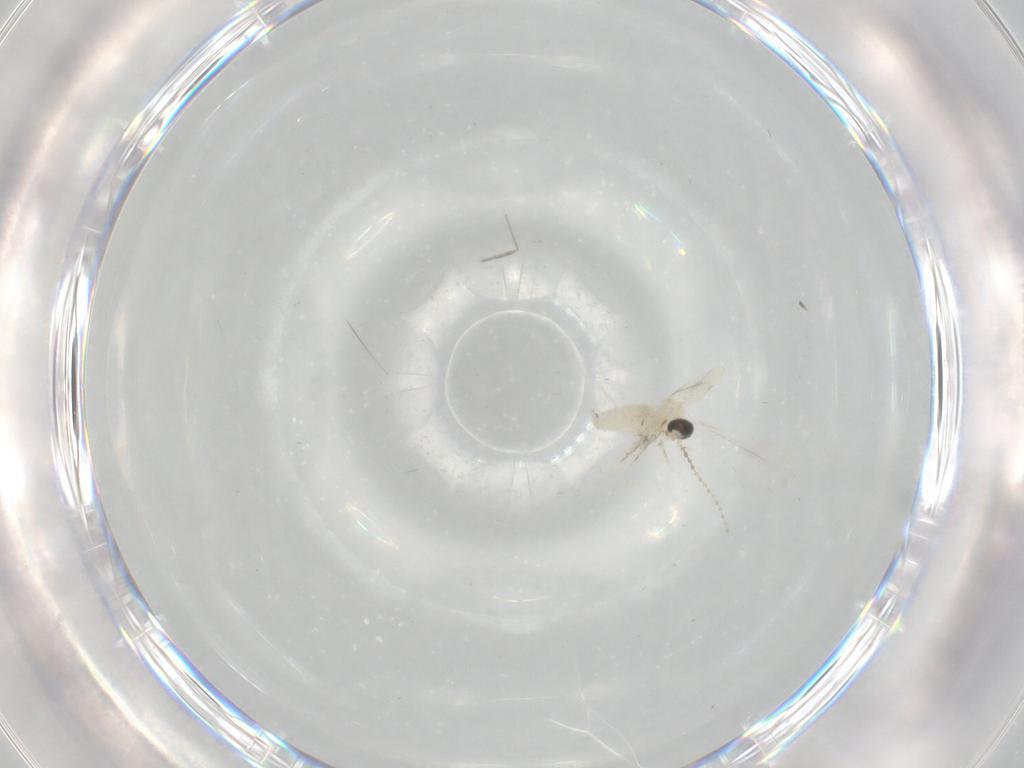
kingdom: Animalia
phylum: Arthropoda
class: Insecta
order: Diptera
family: Cecidomyiidae
